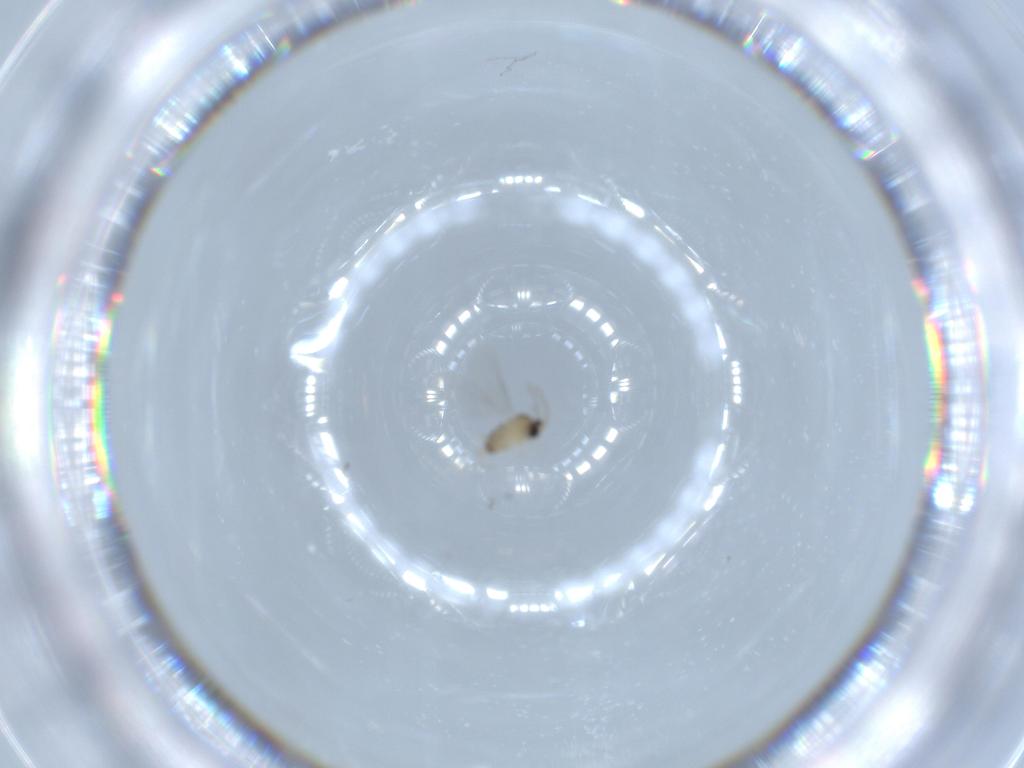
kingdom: Animalia
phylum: Arthropoda
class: Insecta
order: Diptera
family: Cecidomyiidae
